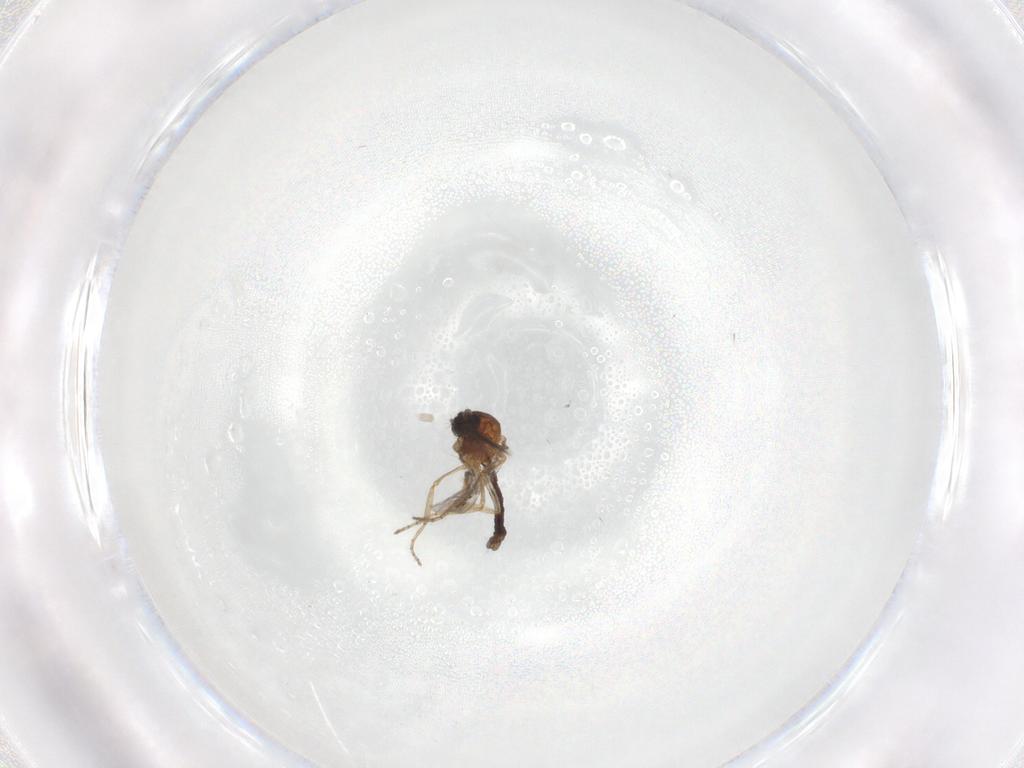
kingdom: Animalia
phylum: Arthropoda
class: Insecta
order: Diptera
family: Ceratopogonidae
